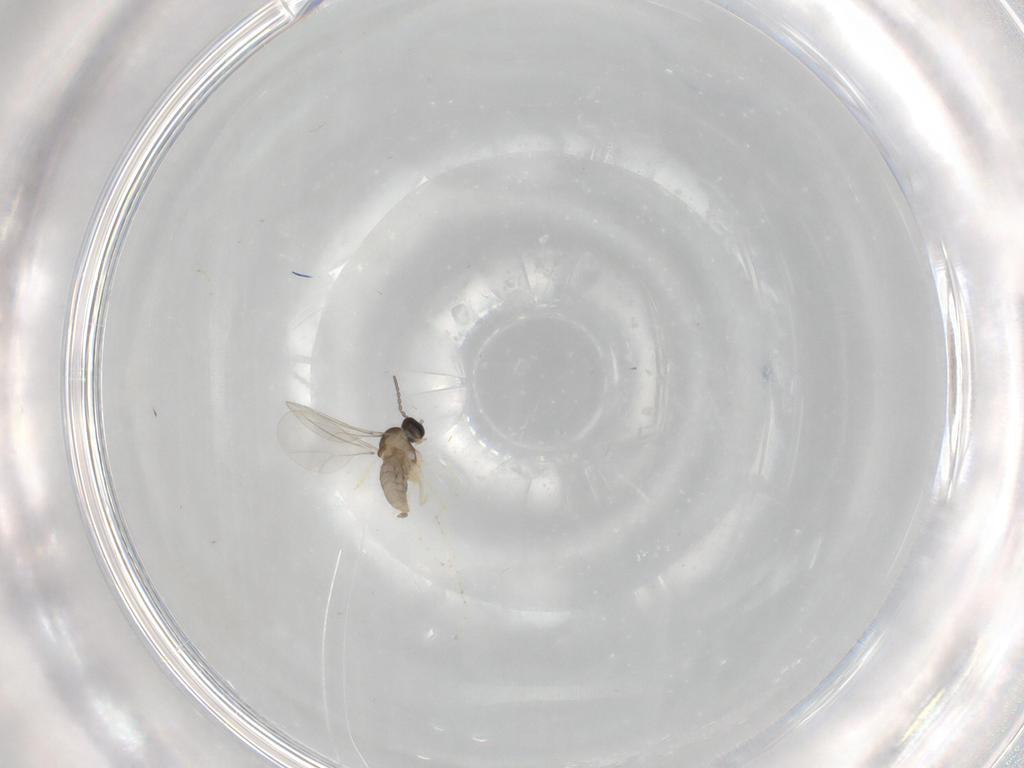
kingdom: Animalia
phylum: Arthropoda
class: Insecta
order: Diptera
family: Cecidomyiidae
